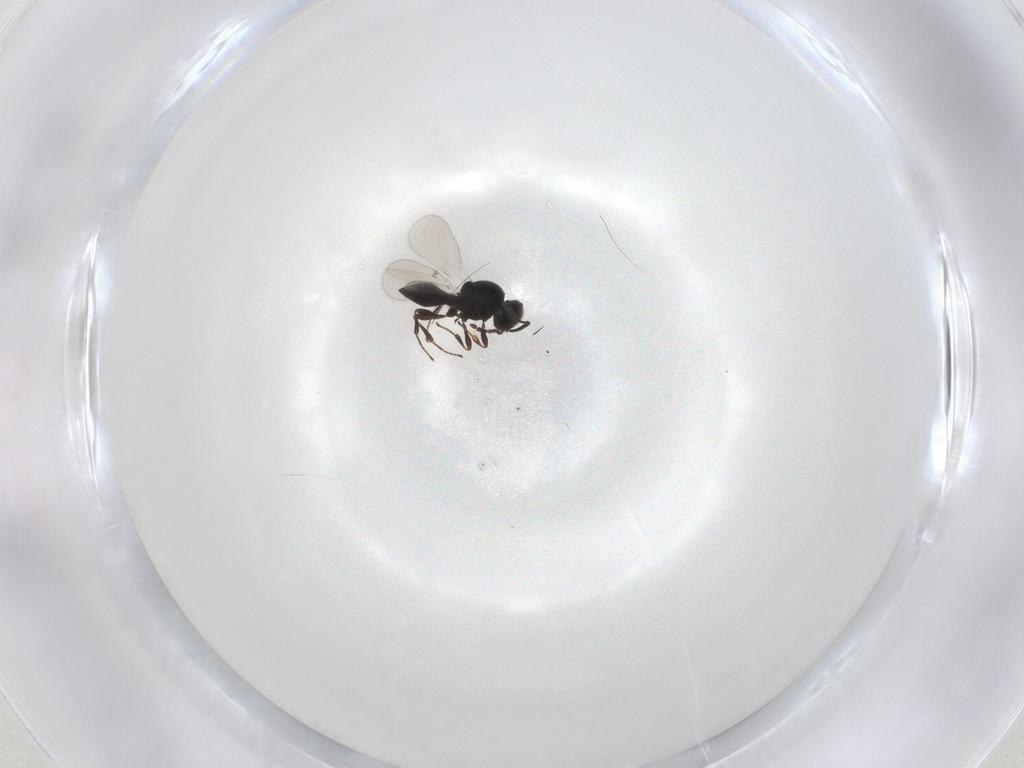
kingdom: Animalia
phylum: Arthropoda
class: Insecta
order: Hymenoptera
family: Platygastridae
